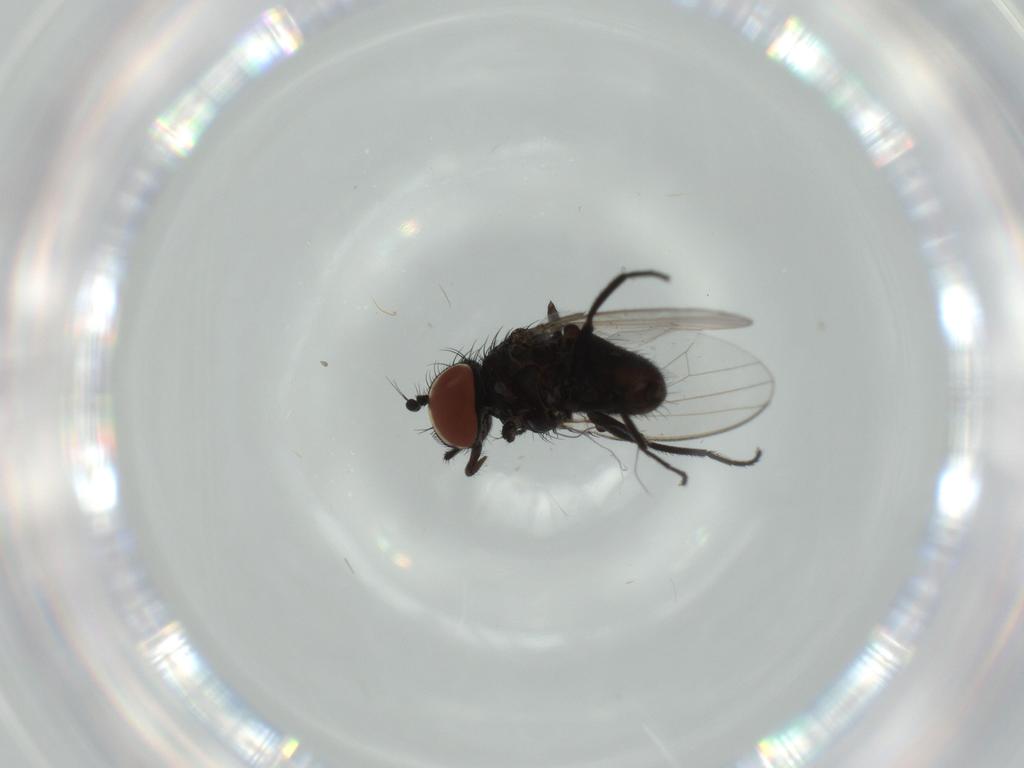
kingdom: Animalia
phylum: Arthropoda
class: Insecta
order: Diptera
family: Milichiidae
